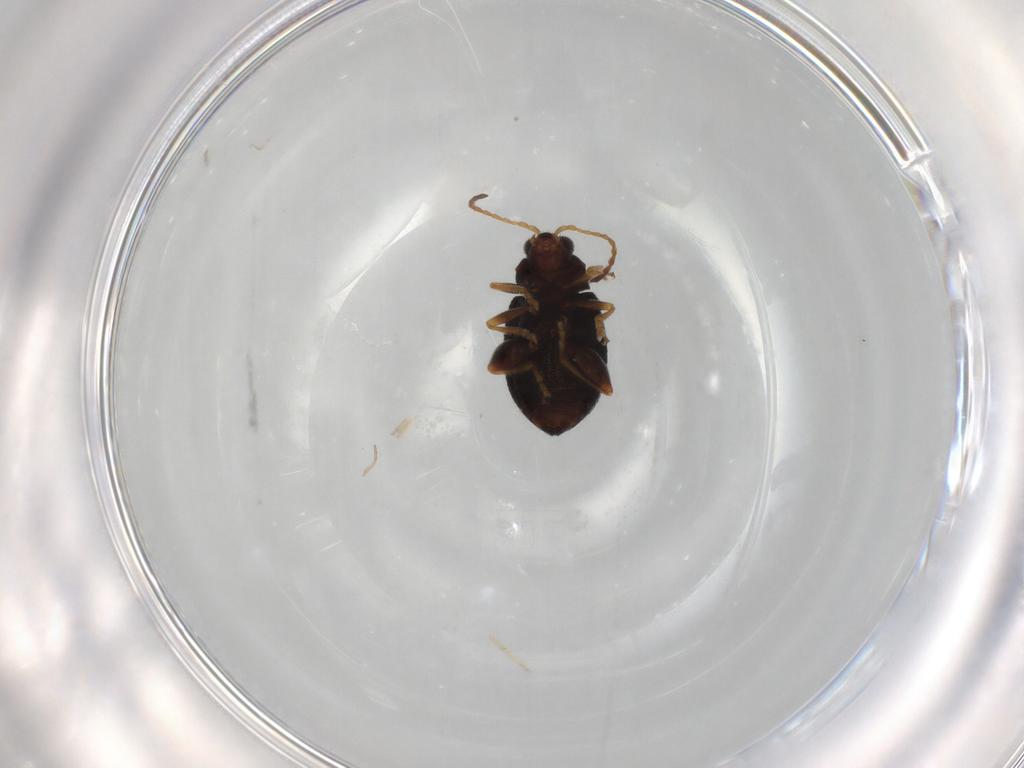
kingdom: Animalia
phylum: Arthropoda
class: Insecta
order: Coleoptera
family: Chrysomelidae
